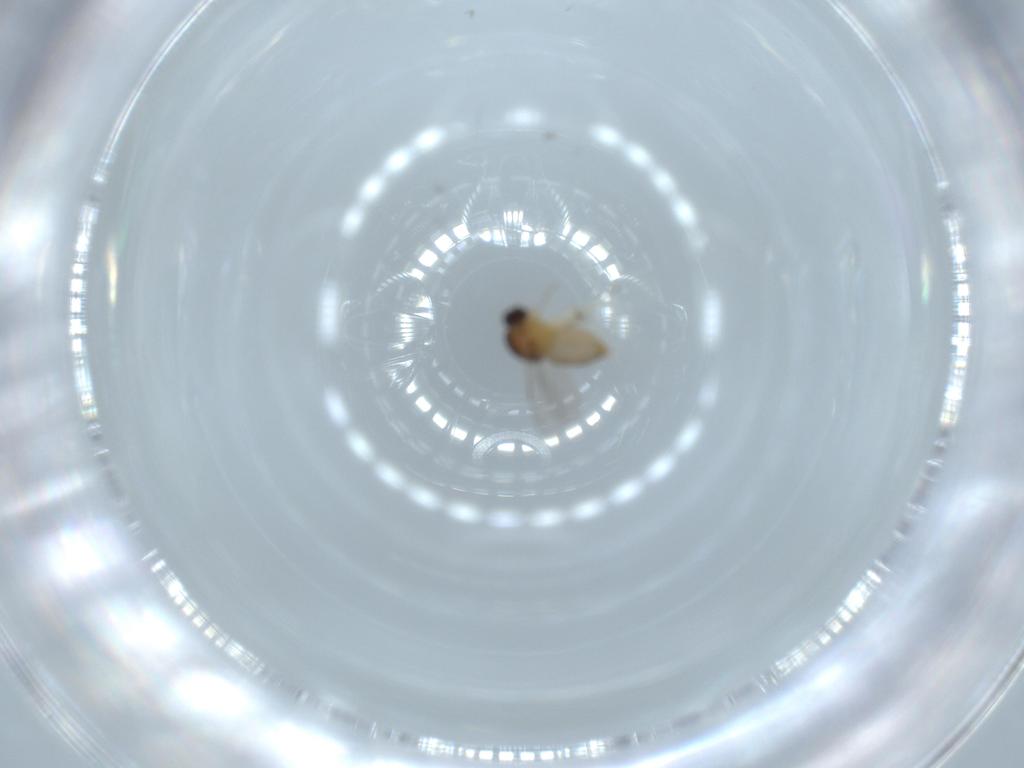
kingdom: Animalia
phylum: Arthropoda
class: Insecta
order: Diptera
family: Ceratopogonidae
